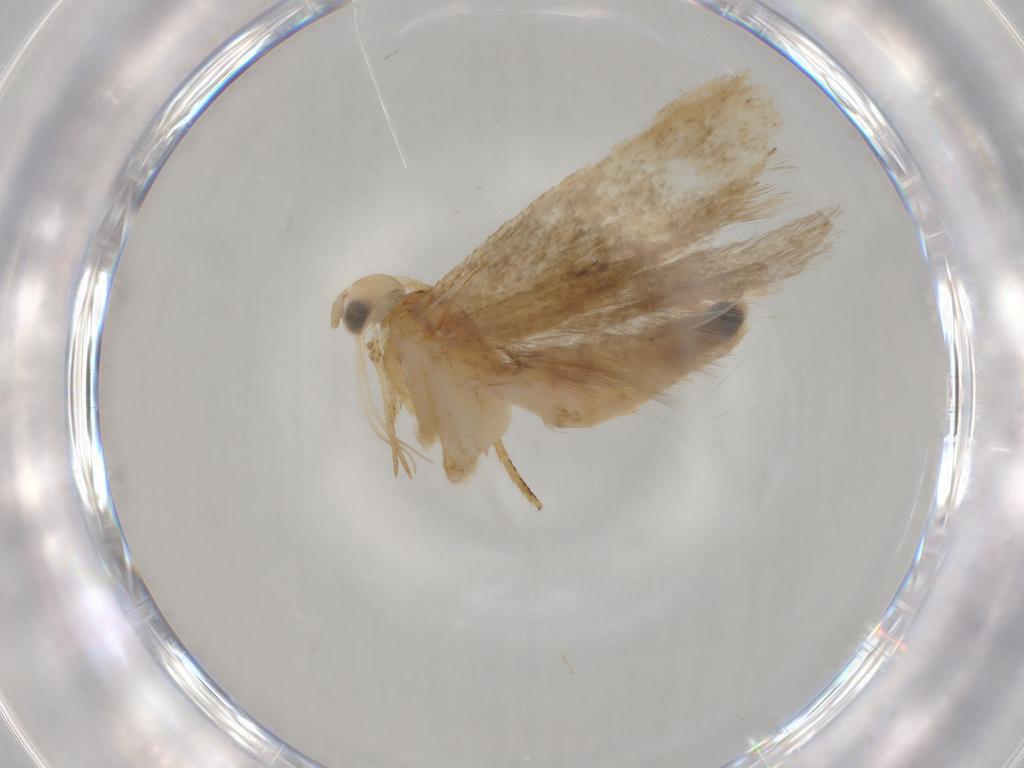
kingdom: Animalia
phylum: Arthropoda
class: Insecta
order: Lepidoptera
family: Gelechiidae
